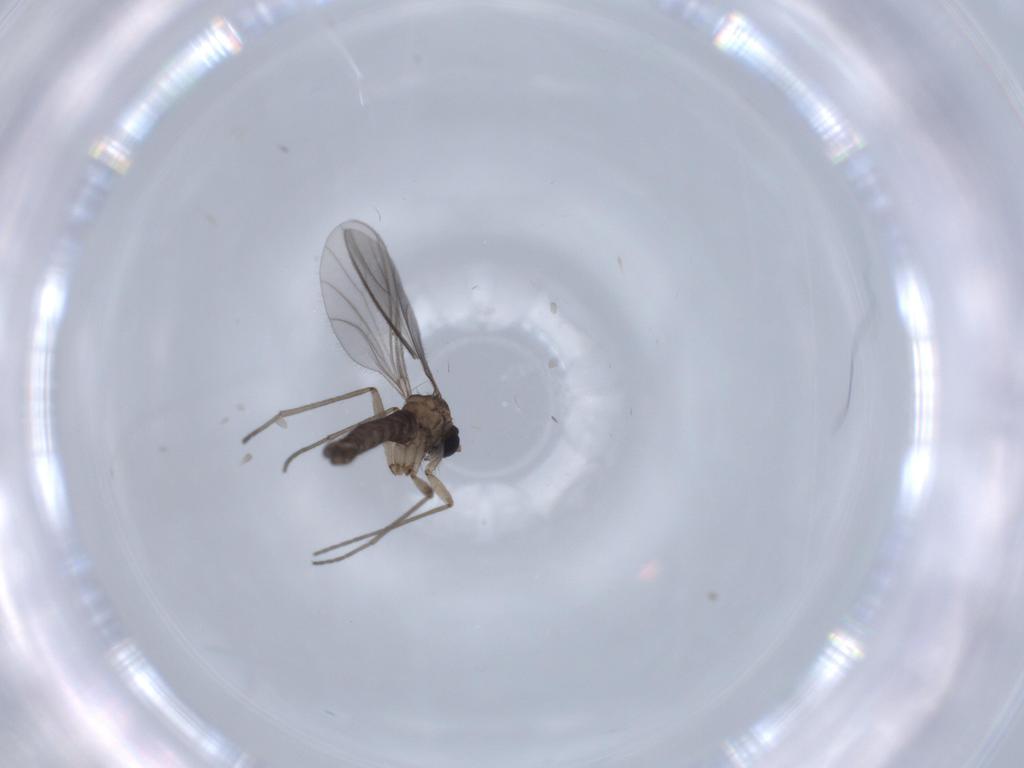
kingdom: Animalia
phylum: Arthropoda
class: Insecta
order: Diptera
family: Sciaridae
